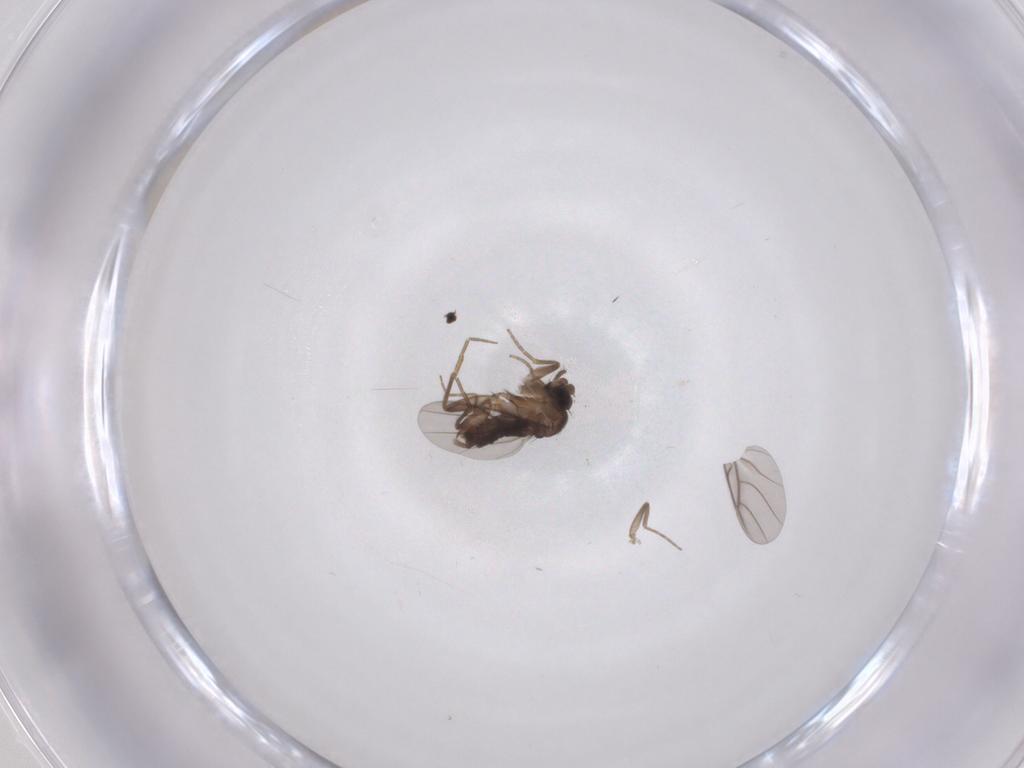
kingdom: Animalia
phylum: Arthropoda
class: Insecta
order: Diptera
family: Phoridae
